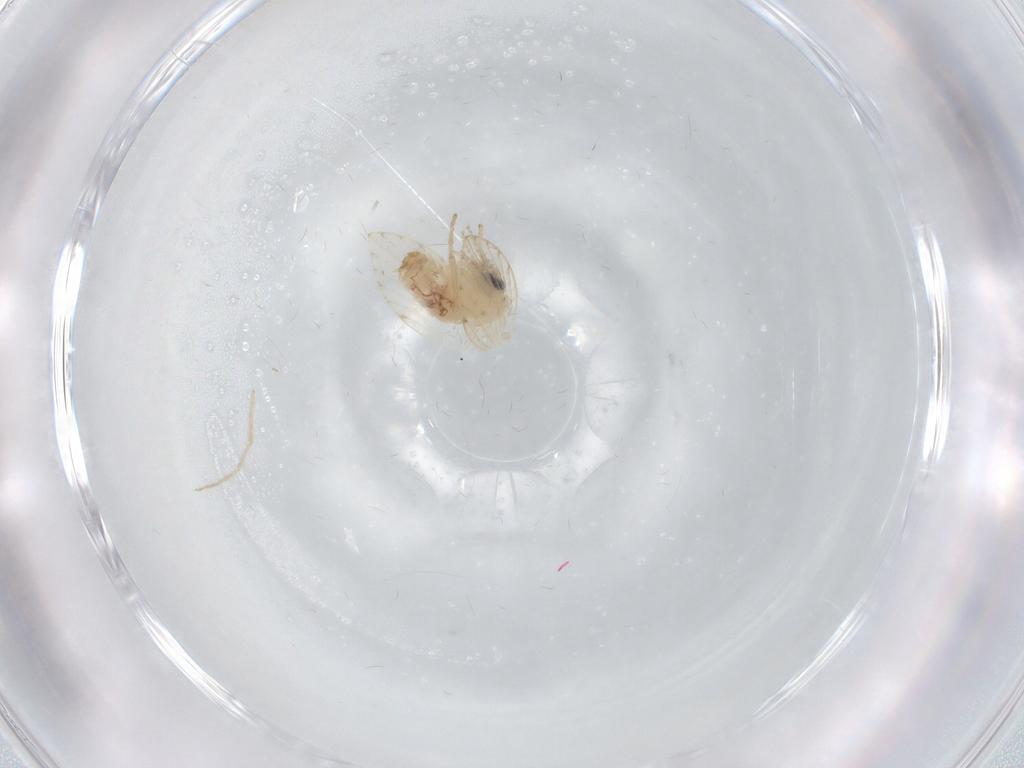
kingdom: Animalia
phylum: Arthropoda
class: Insecta
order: Diptera
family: Psychodidae
